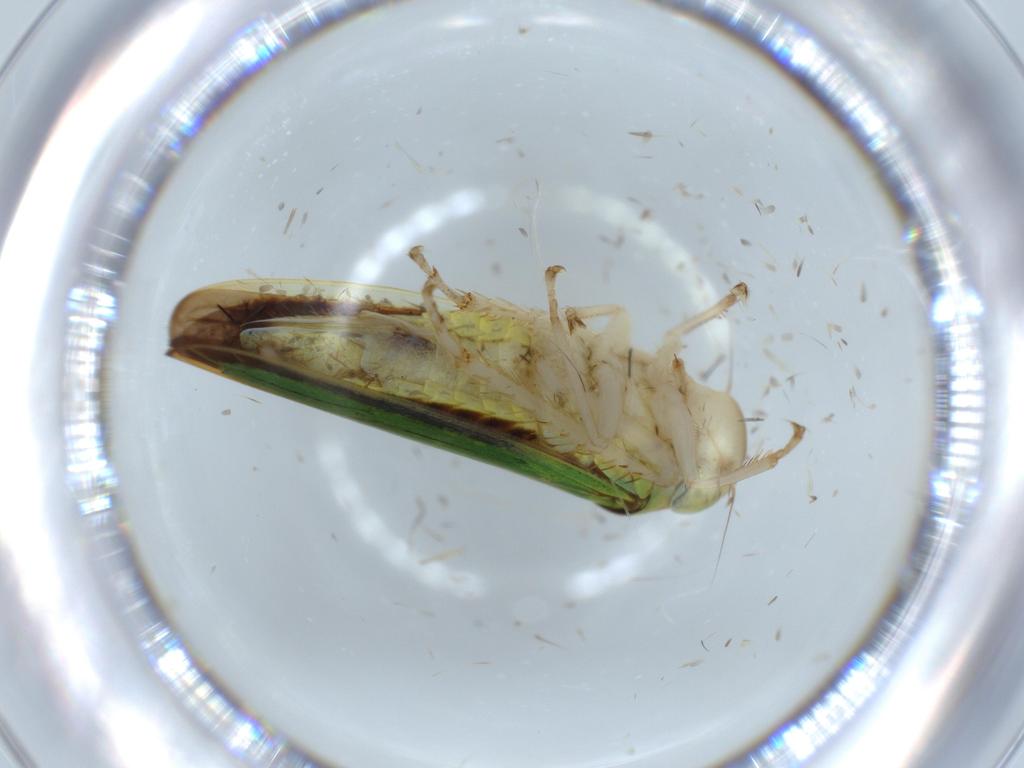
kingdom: Animalia
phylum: Arthropoda
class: Insecta
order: Hemiptera
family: Cicadellidae
